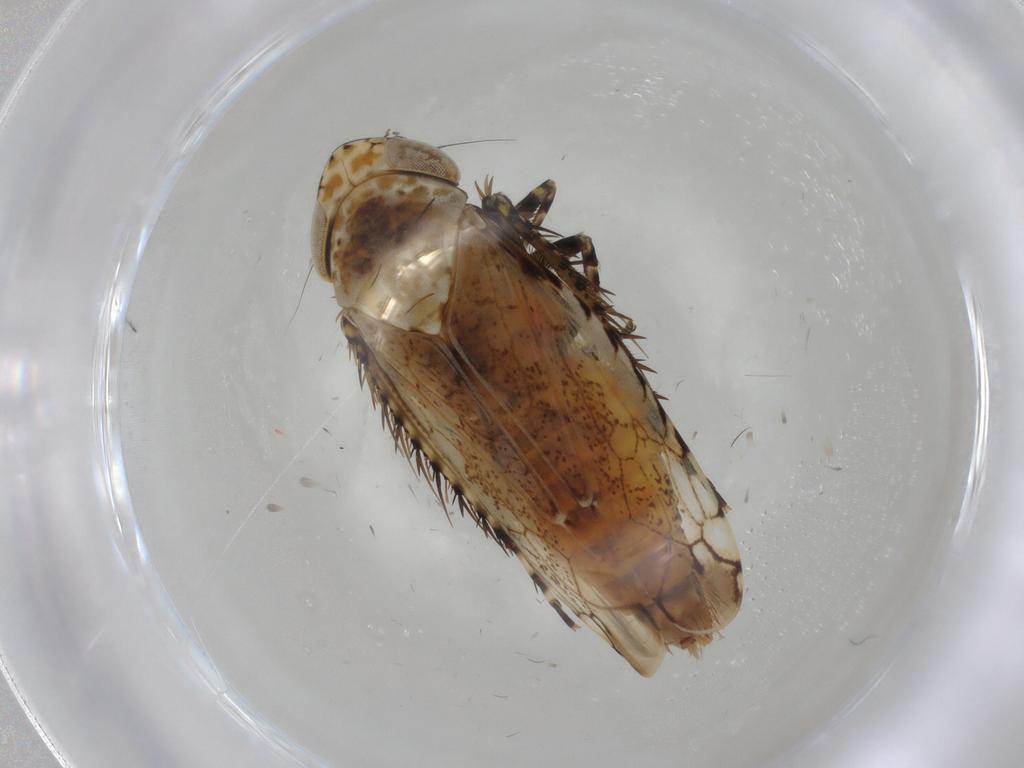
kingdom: Animalia
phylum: Arthropoda
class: Insecta
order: Hemiptera
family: Cicadellidae
